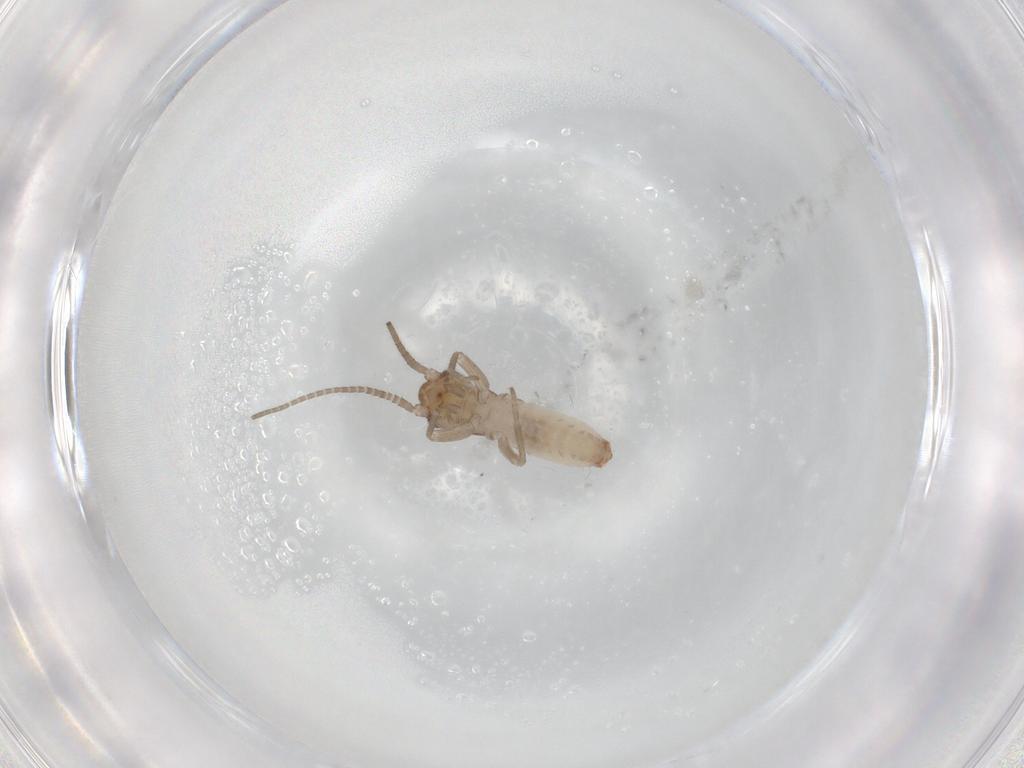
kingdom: Animalia
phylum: Arthropoda
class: Insecta
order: Orthoptera
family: Mogoplistidae
